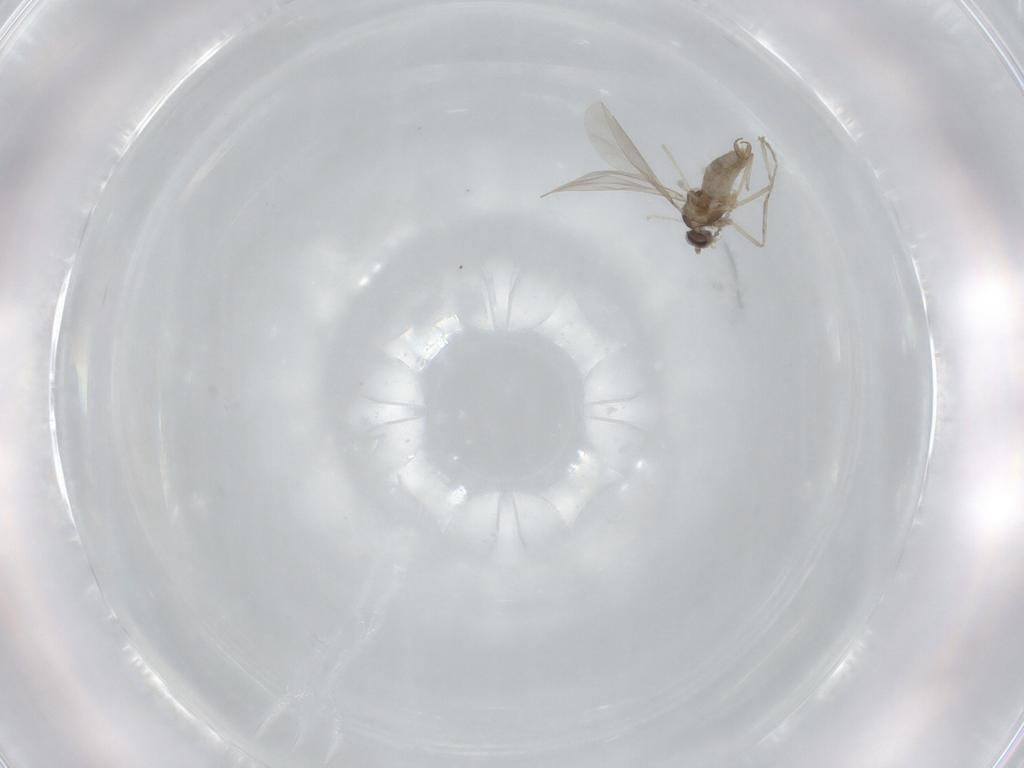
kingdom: Animalia
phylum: Arthropoda
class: Insecta
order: Diptera
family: Cecidomyiidae
